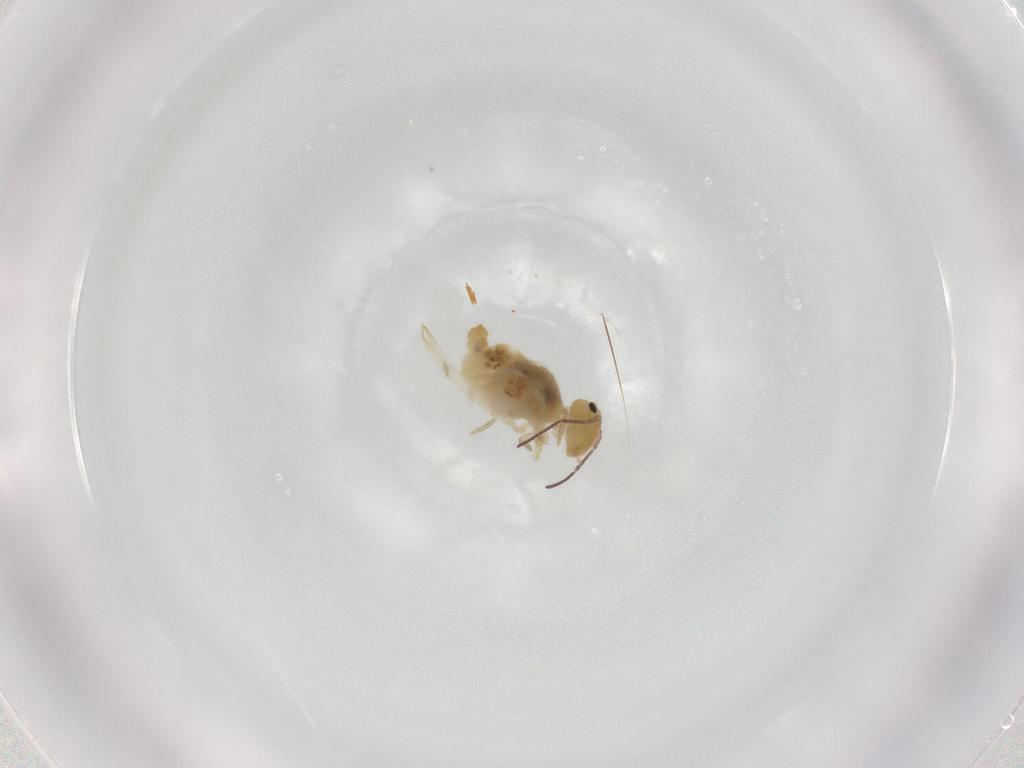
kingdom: Animalia
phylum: Arthropoda
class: Collembola
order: Symphypleona
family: Bourletiellidae
